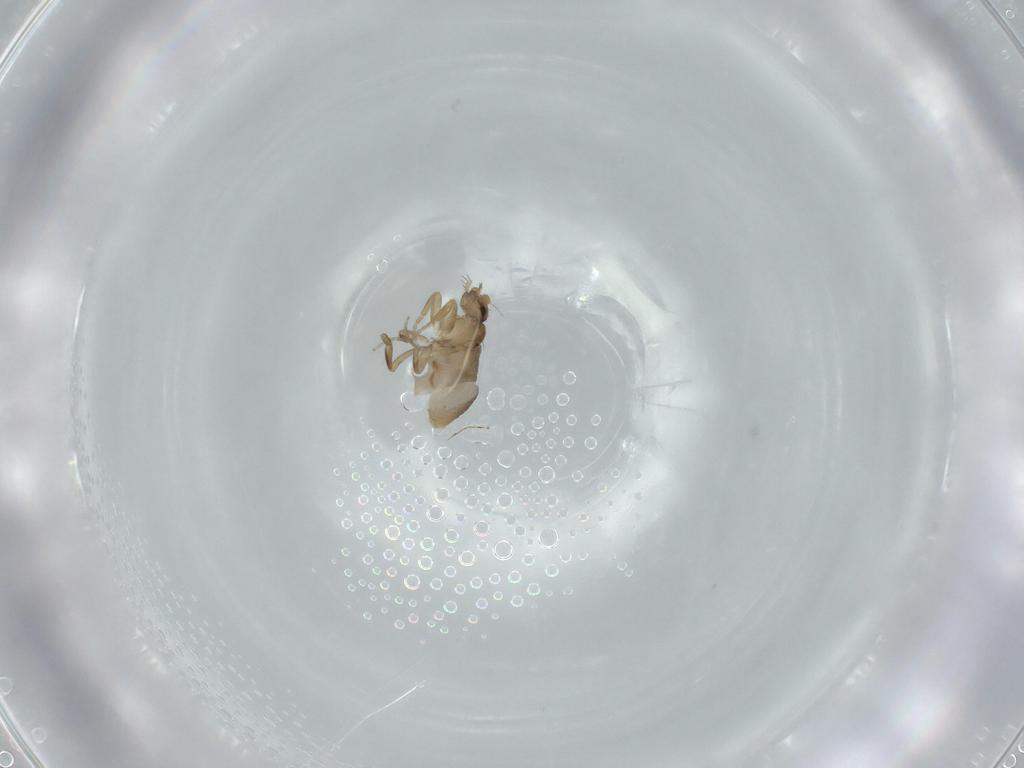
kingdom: Animalia
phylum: Arthropoda
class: Insecta
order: Diptera
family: Phoridae
